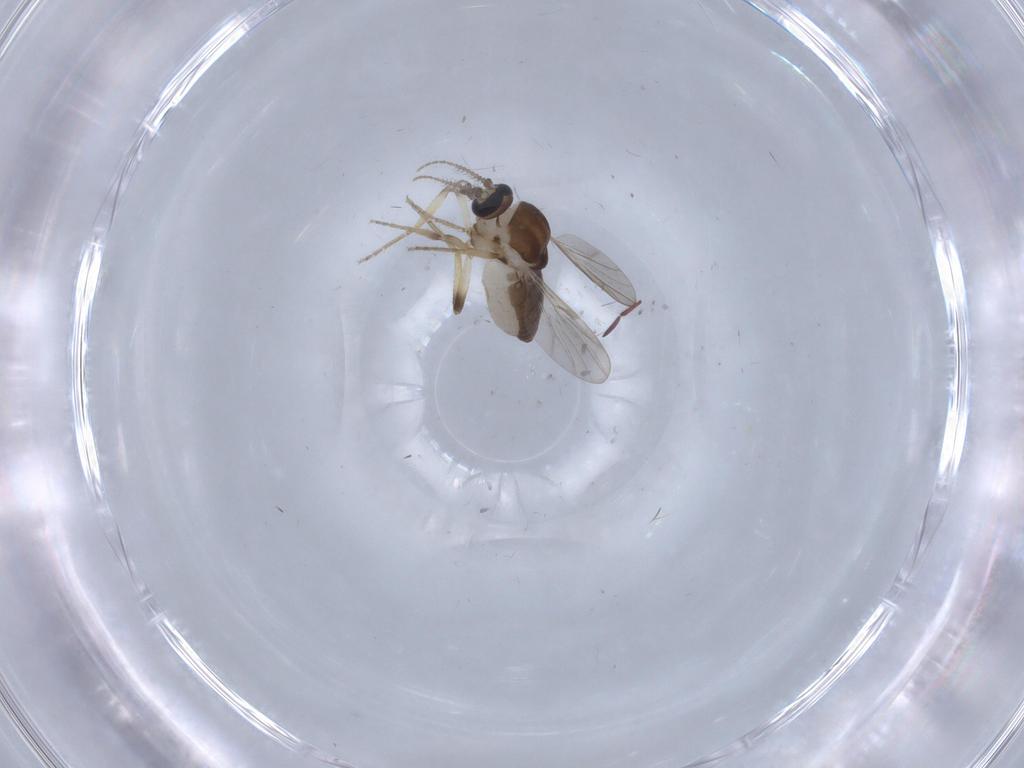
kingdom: Animalia
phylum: Arthropoda
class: Insecta
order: Diptera
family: Ceratopogonidae
